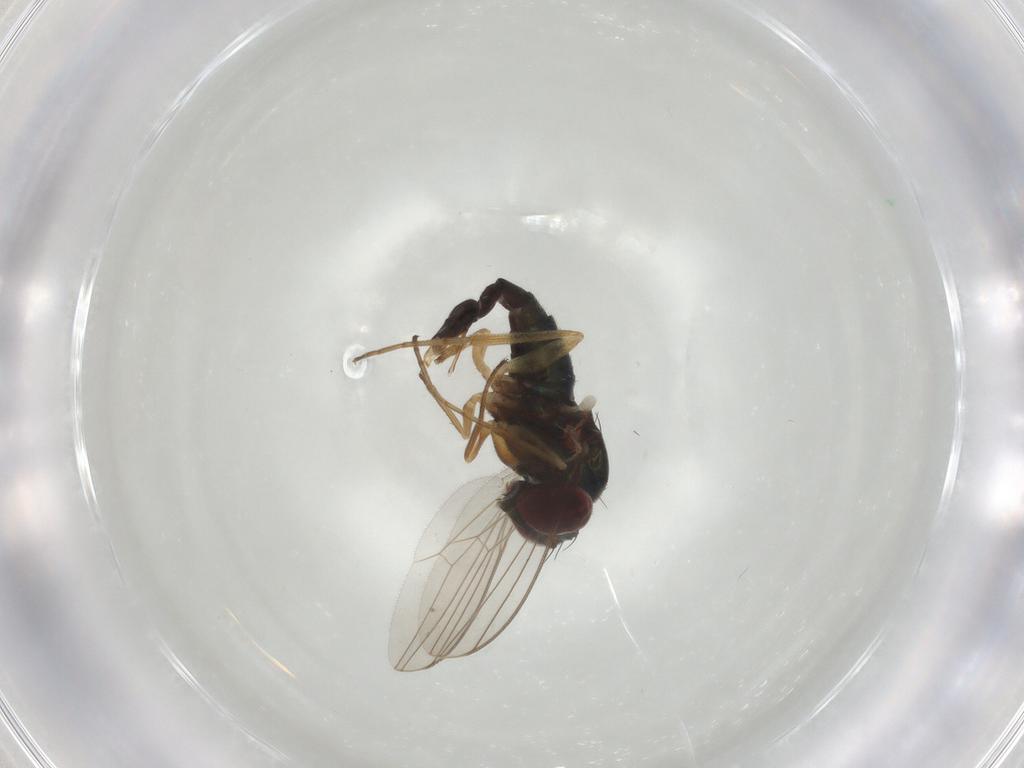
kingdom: Animalia
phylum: Arthropoda
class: Insecta
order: Diptera
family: Dolichopodidae
